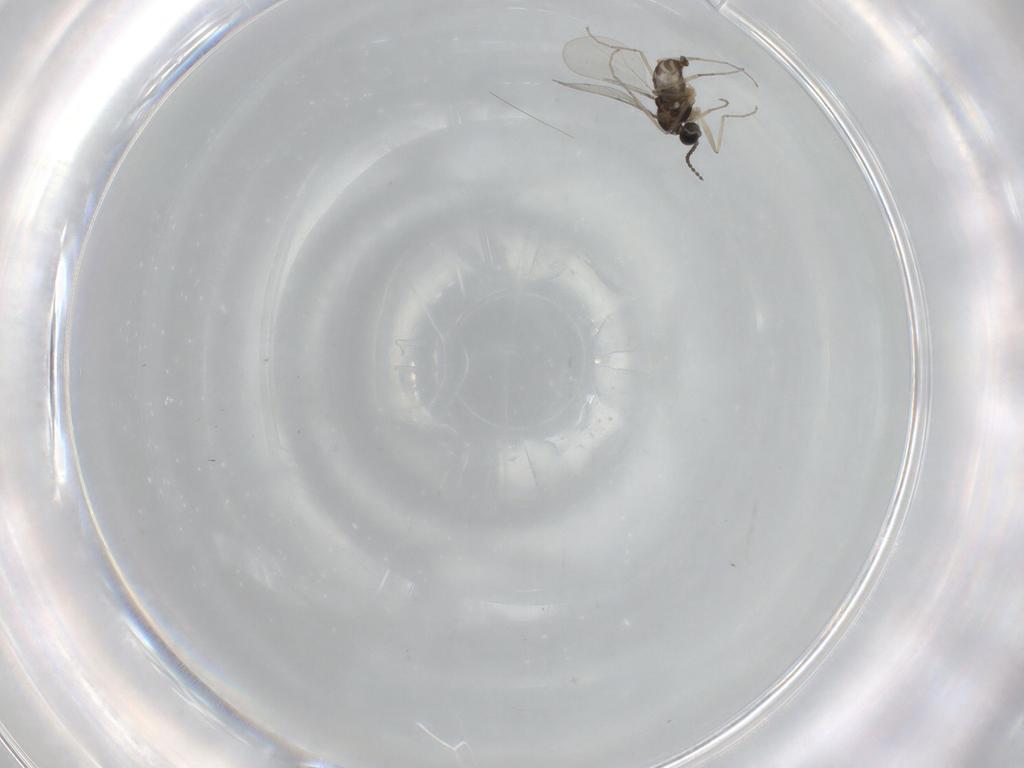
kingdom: Animalia
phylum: Arthropoda
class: Insecta
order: Diptera
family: Cecidomyiidae
